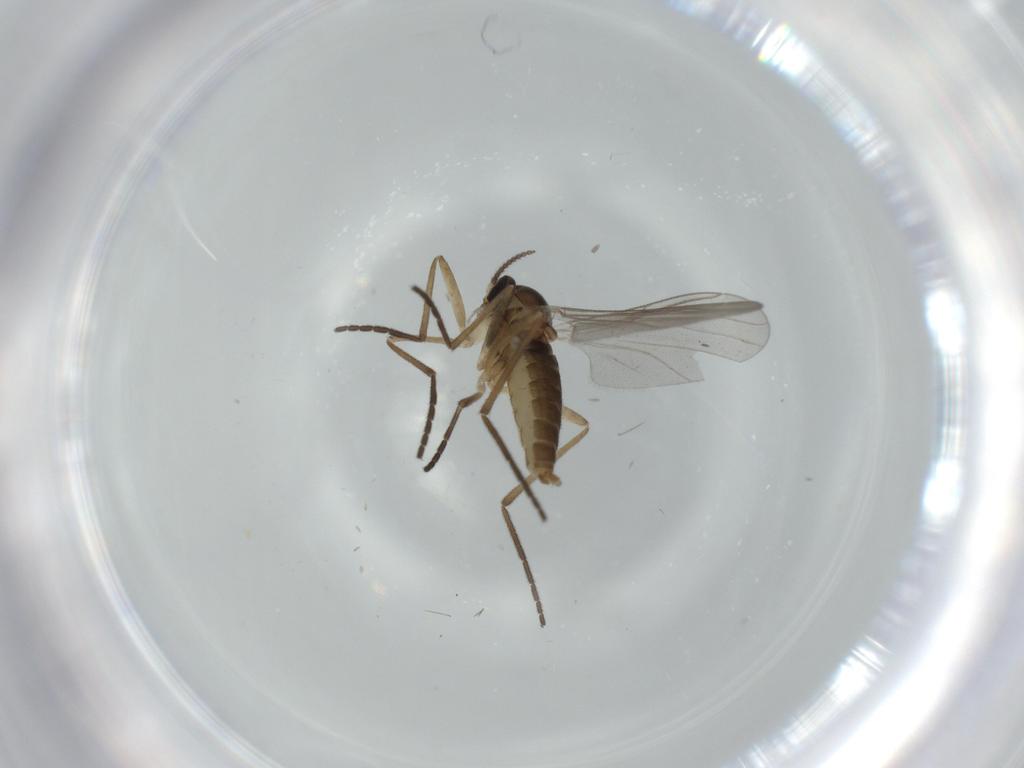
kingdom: Animalia
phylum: Arthropoda
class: Insecta
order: Diptera
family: Cecidomyiidae
